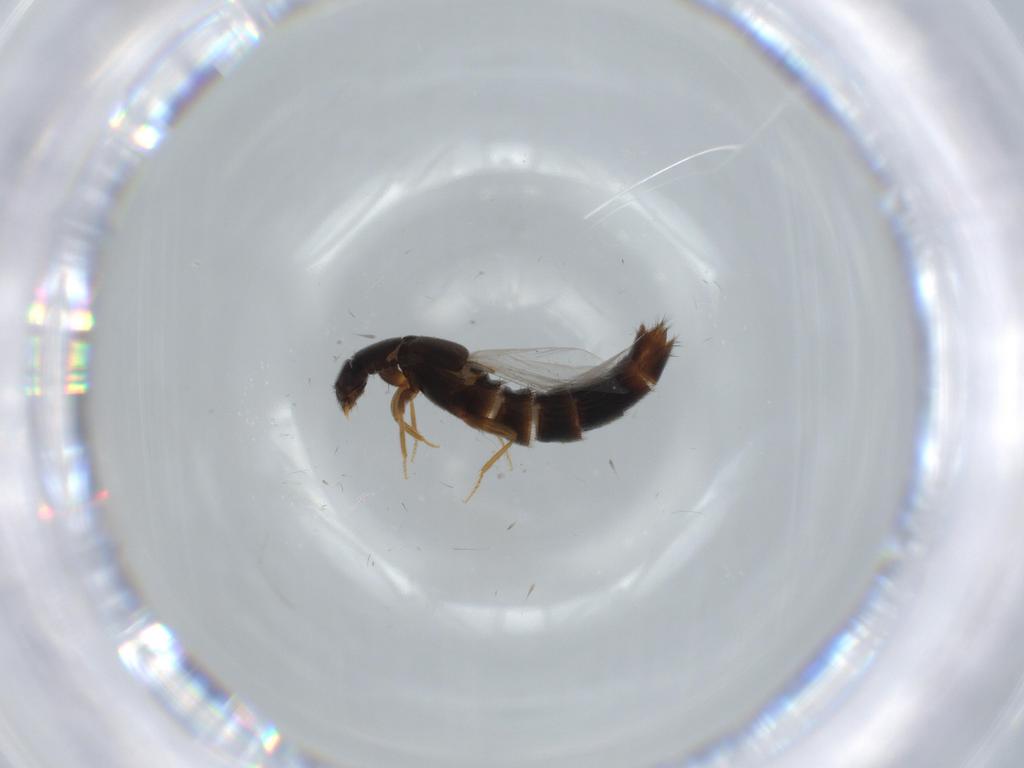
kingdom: Animalia
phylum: Arthropoda
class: Insecta
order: Coleoptera
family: Staphylinidae
